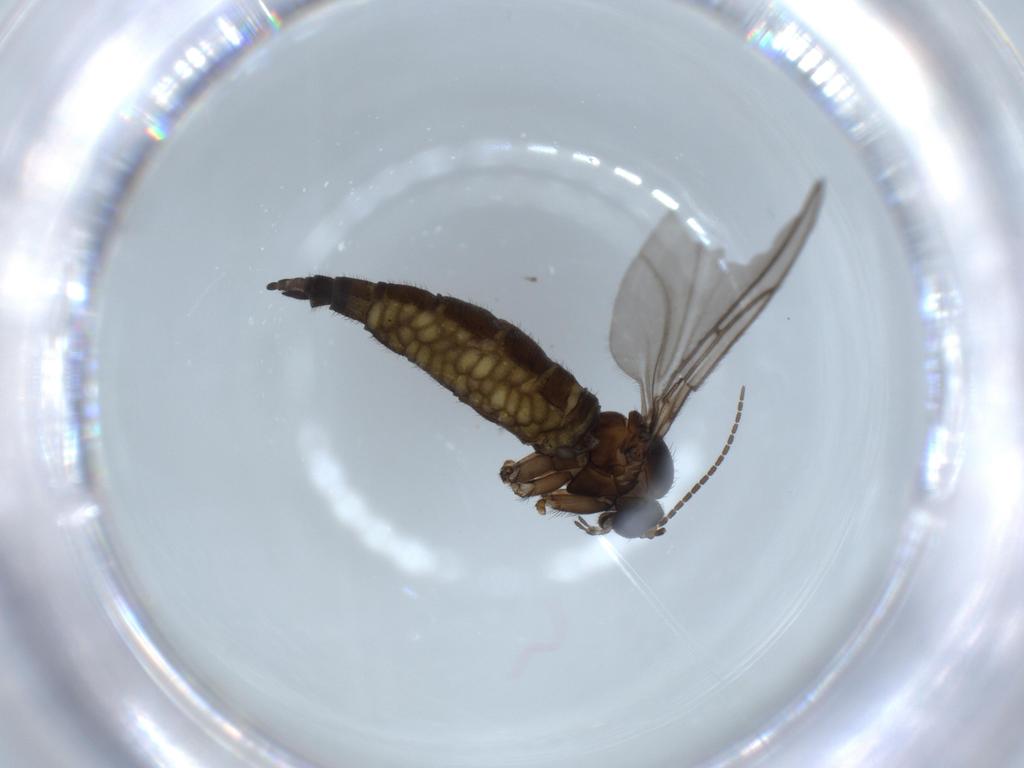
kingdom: Animalia
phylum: Arthropoda
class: Insecta
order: Diptera
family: Sciaridae
